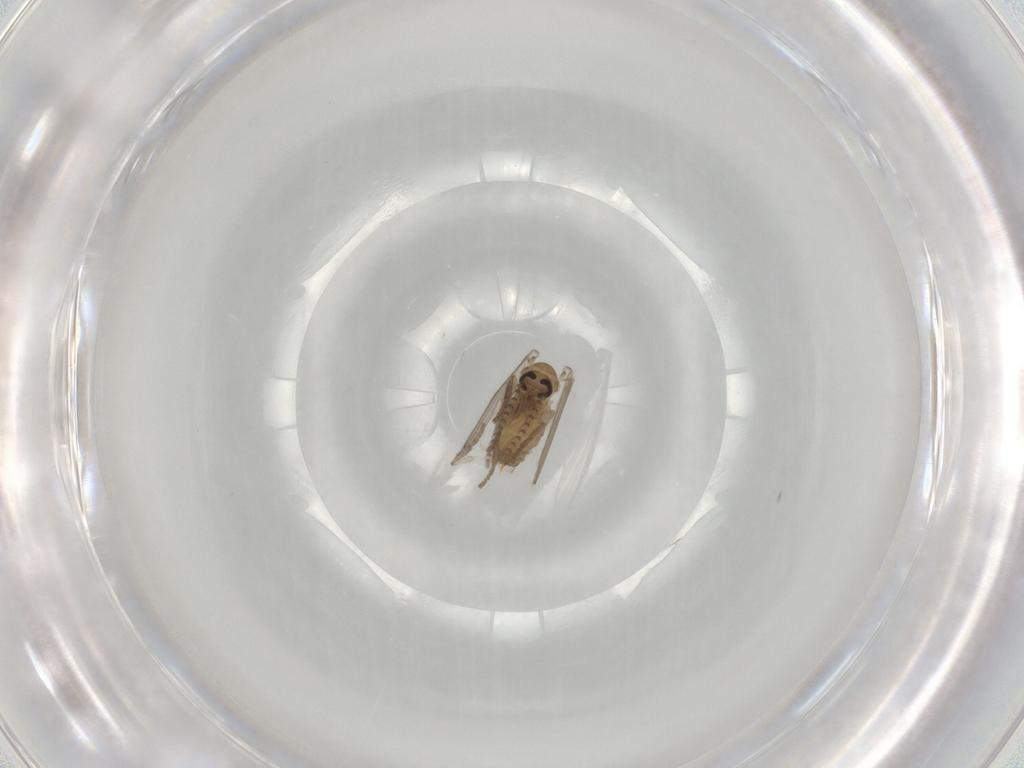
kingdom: Animalia
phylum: Arthropoda
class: Insecta
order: Diptera
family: Psychodidae
